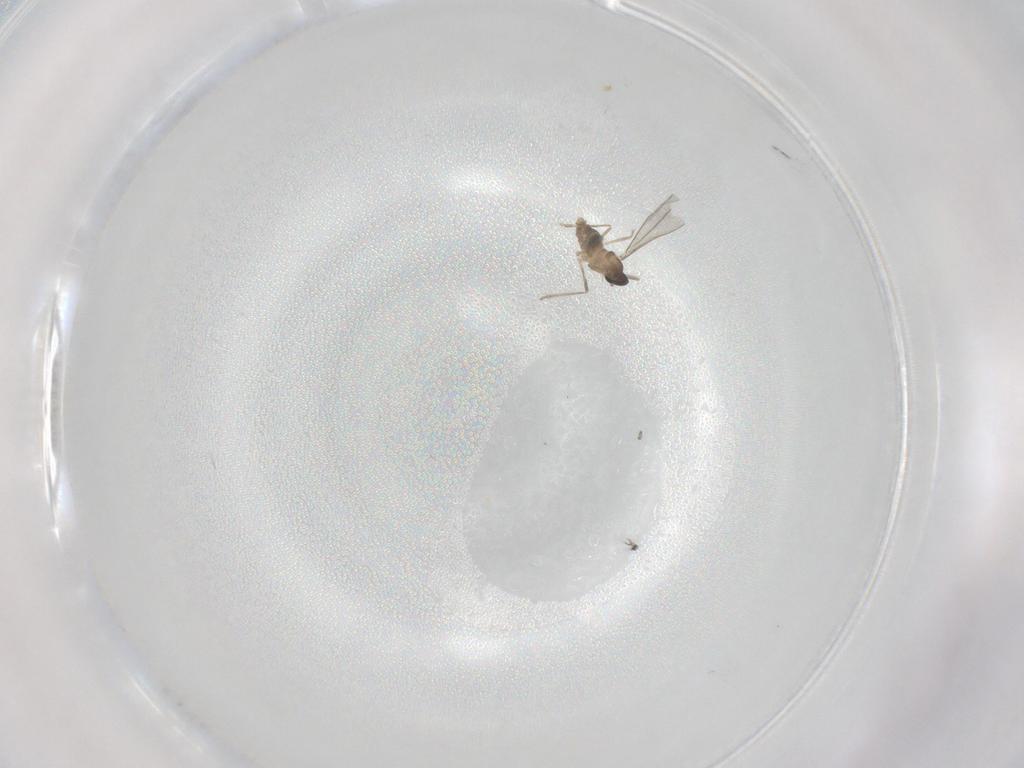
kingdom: Animalia
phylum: Arthropoda
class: Insecta
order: Diptera
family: Cecidomyiidae
